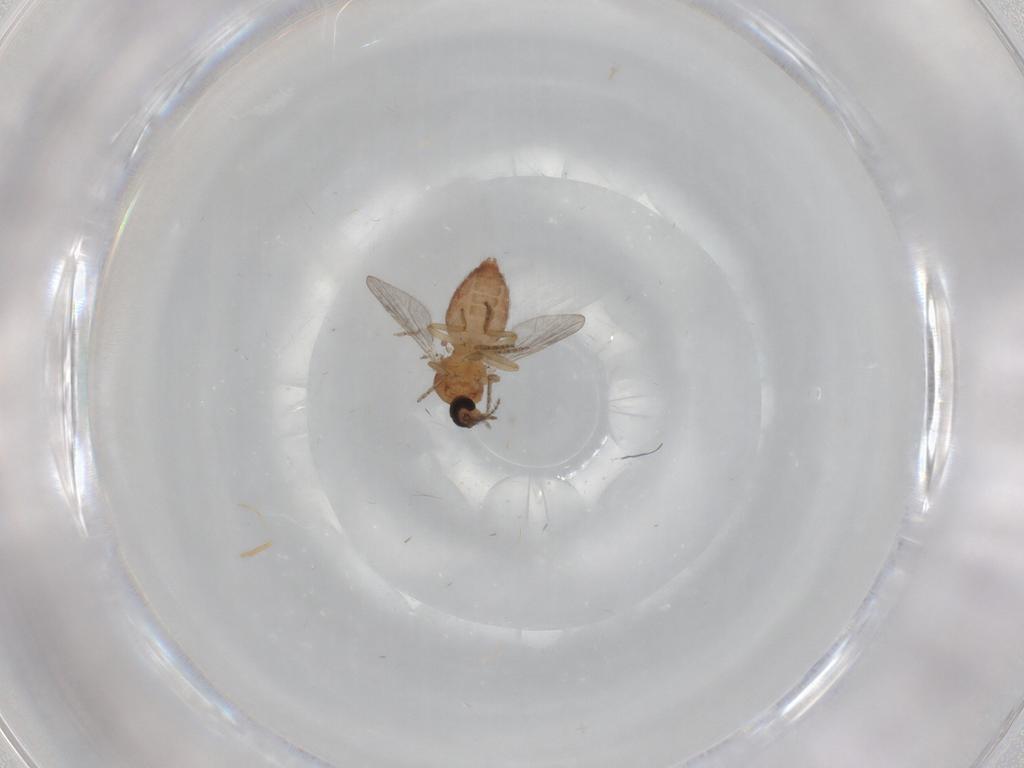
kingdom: Animalia
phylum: Arthropoda
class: Insecta
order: Diptera
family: Ceratopogonidae
